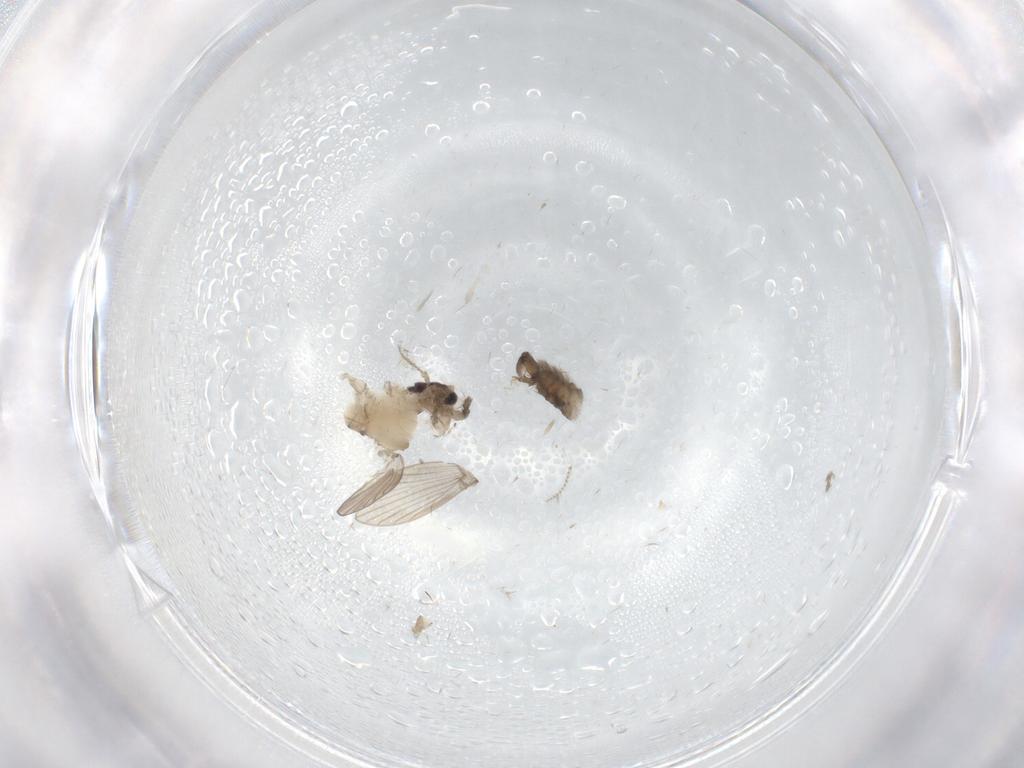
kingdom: Animalia
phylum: Arthropoda
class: Insecta
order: Diptera
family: Psychodidae
